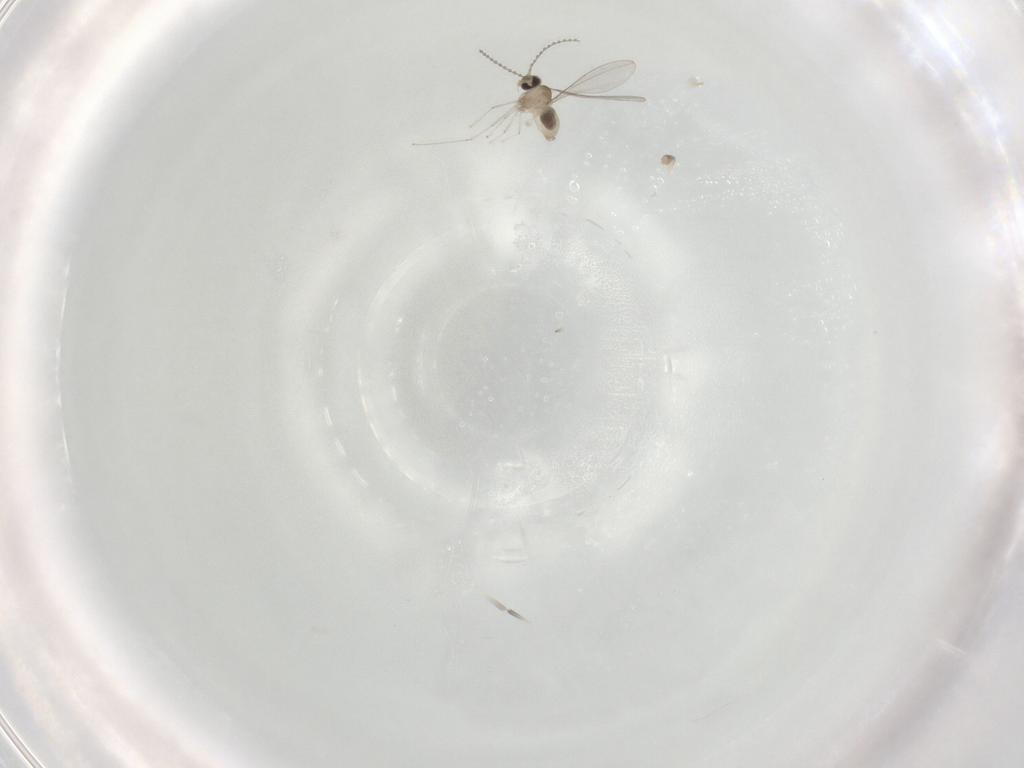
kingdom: Animalia
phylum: Arthropoda
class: Insecta
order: Diptera
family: Cecidomyiidae
